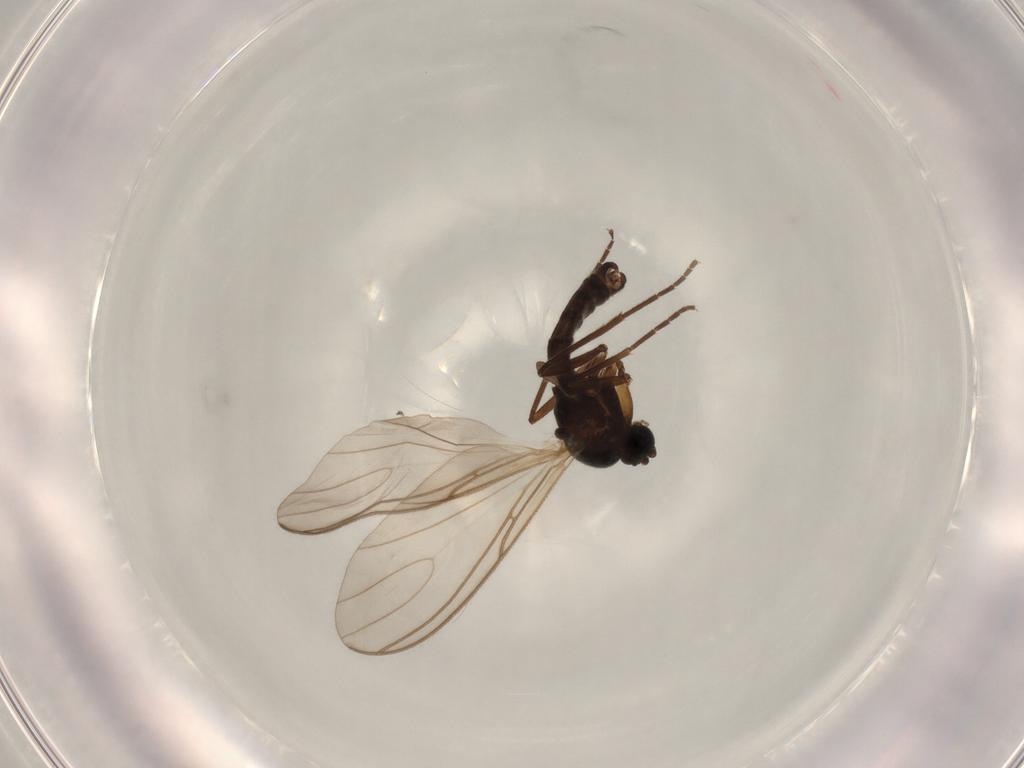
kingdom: Animalia
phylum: Arthropoda
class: Insecta
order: Diptera
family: Sciaridae
